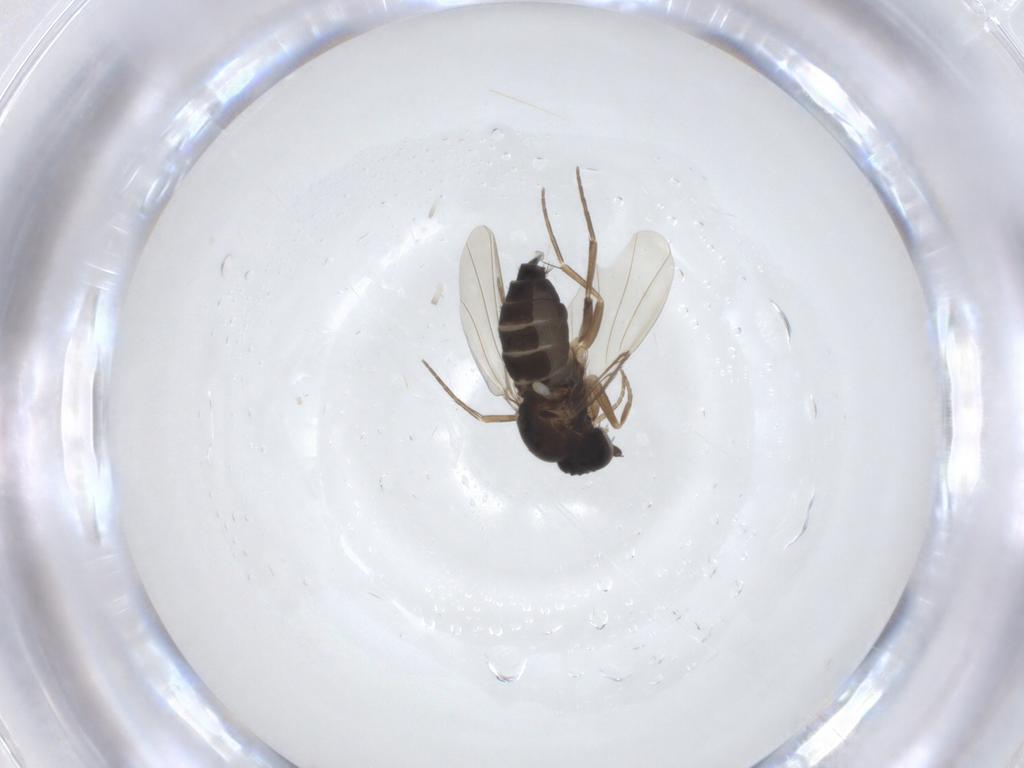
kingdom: Animalia
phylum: Arthropoda
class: Insecta
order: Diptera
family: Phoridae
